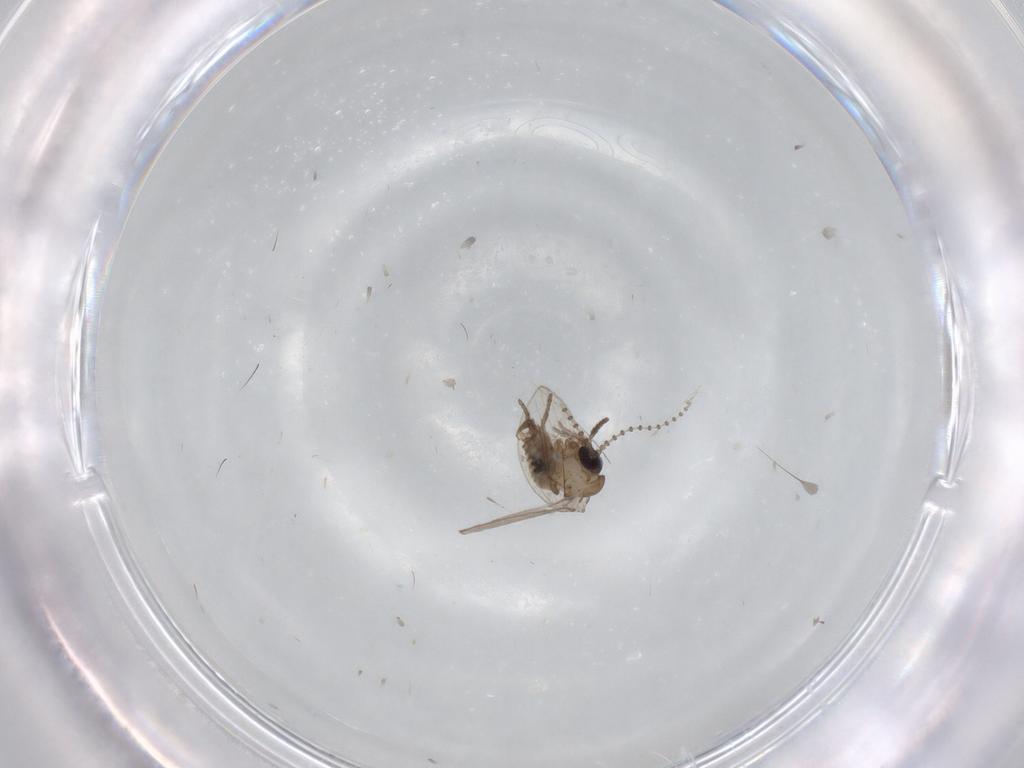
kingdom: Animalia
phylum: Arthropoda
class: Insecta
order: Diptera
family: Psychodidae
